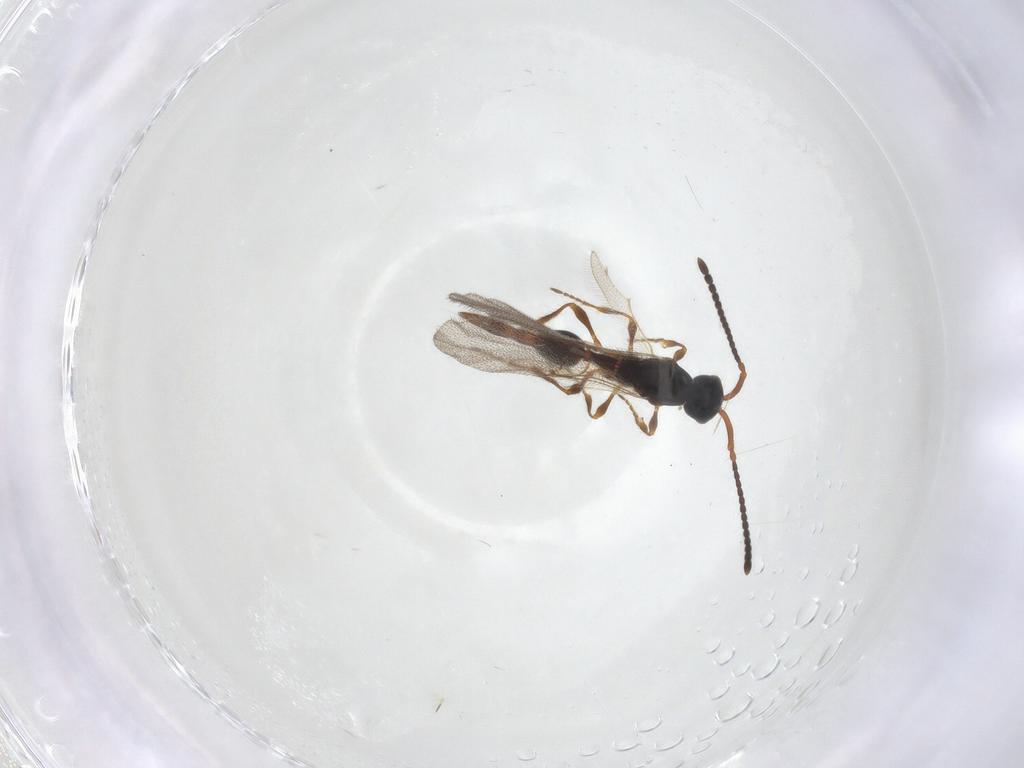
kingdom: Animalia
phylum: Arthropoda
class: Insecta
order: Hymenoptera
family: Diapriidae
